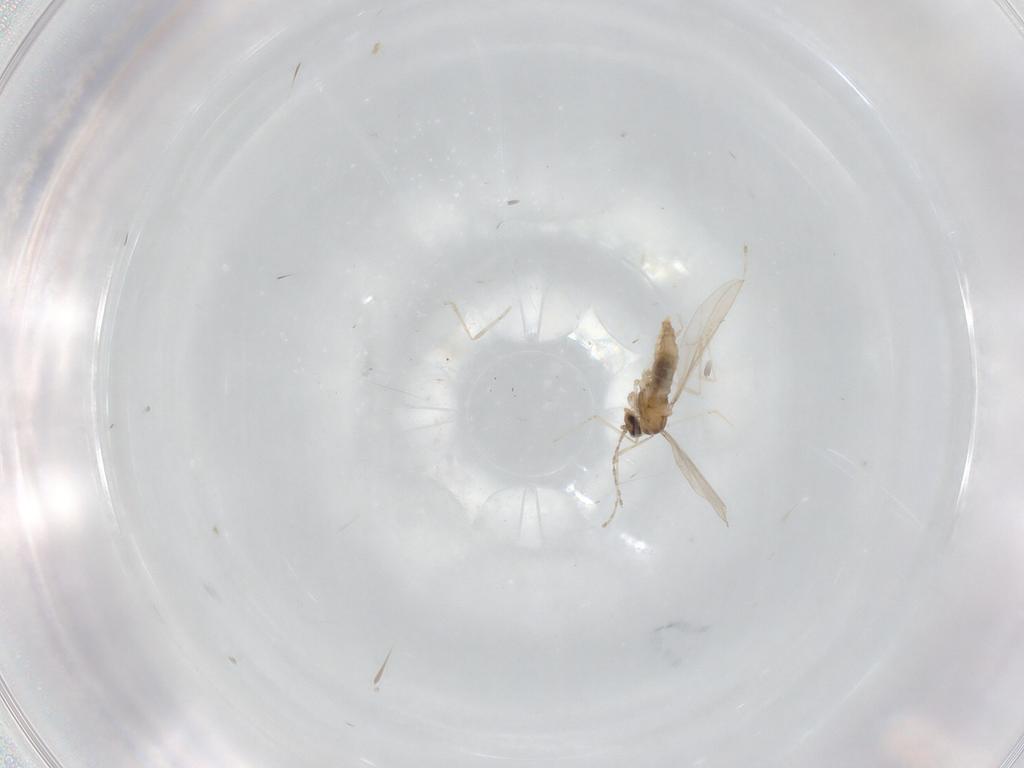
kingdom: Animalia
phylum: Arthropoda
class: Insecta
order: Diptera
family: Cecidomyiidae
